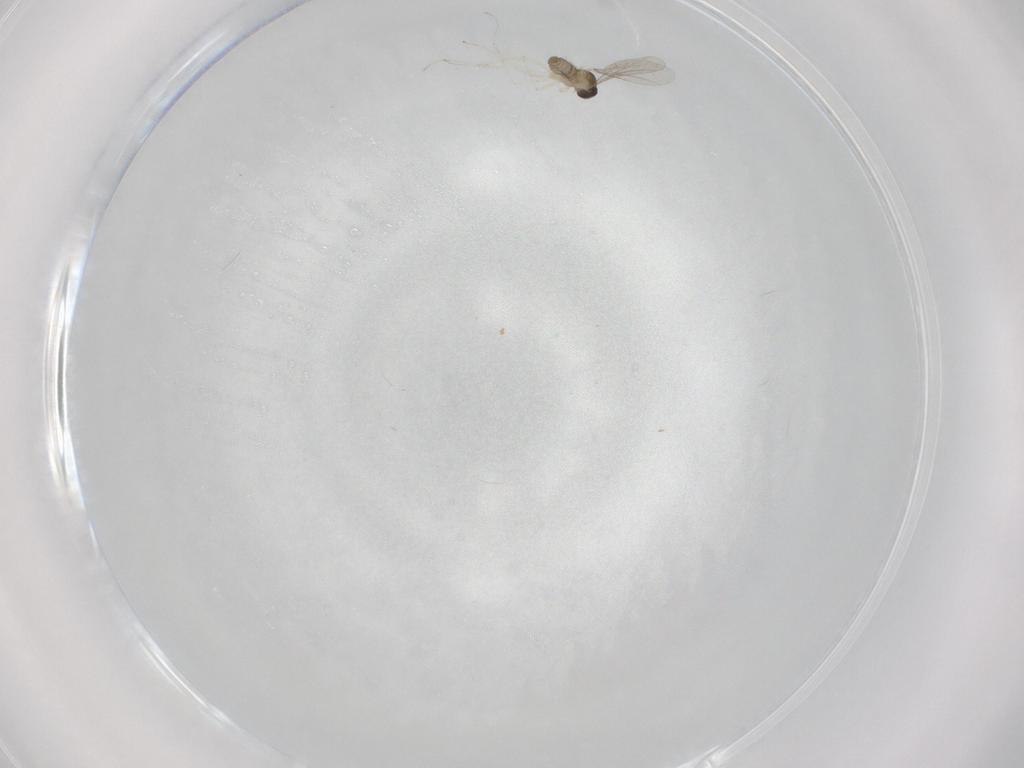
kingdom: Animalia
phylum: Arthropoda
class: Insecta
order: Diptera
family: Cecidomyiidae
